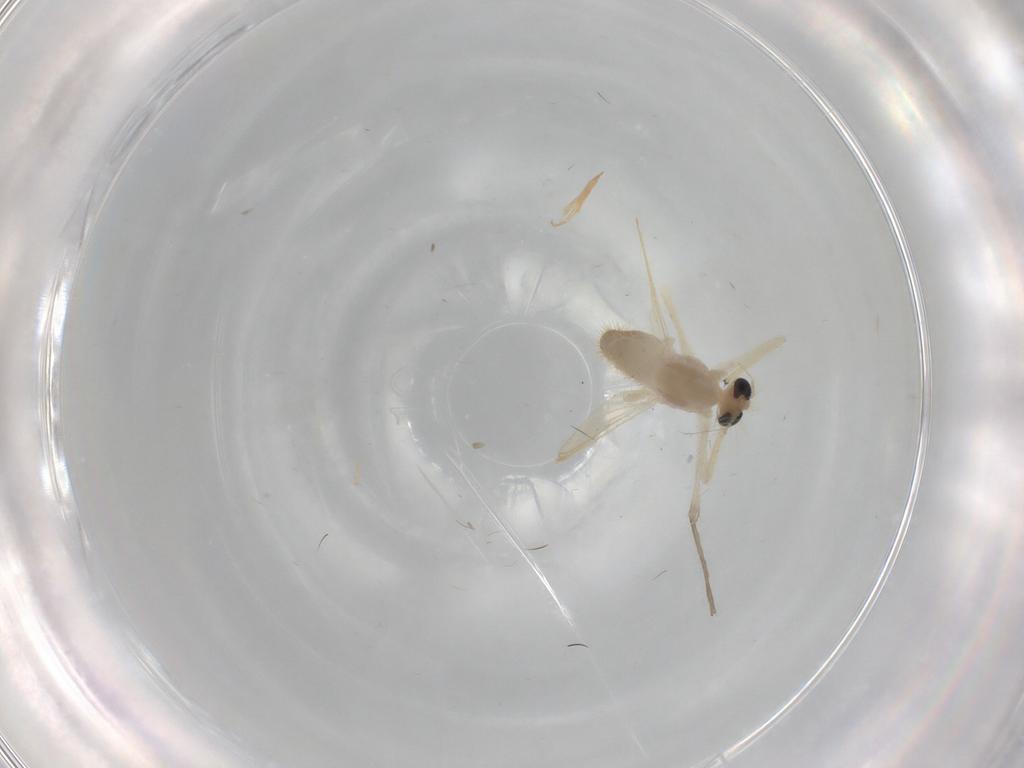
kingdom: Animalia
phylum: Arthropoda
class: Insecta
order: Diptera
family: Chironomidae
